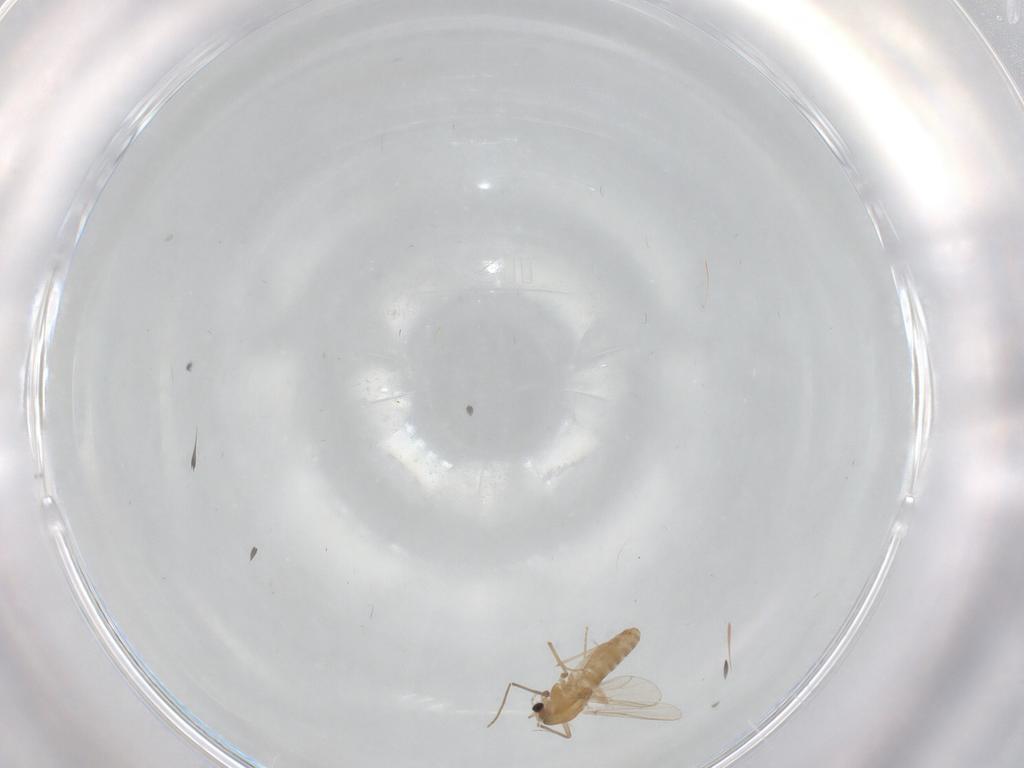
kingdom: Animalia
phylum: Arthropoda
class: Insecta
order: Diptera
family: Cecidomyiidae
